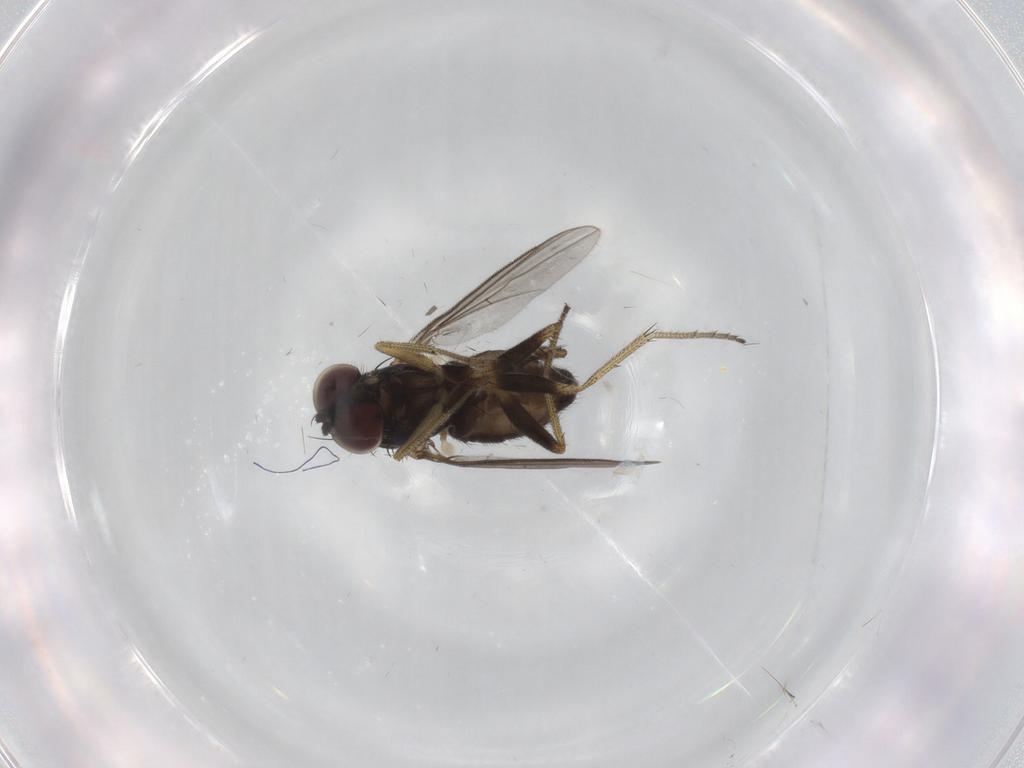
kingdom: Animalia
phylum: Arthropoda
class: Insecta
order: Diptera
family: Dolichopodidae
